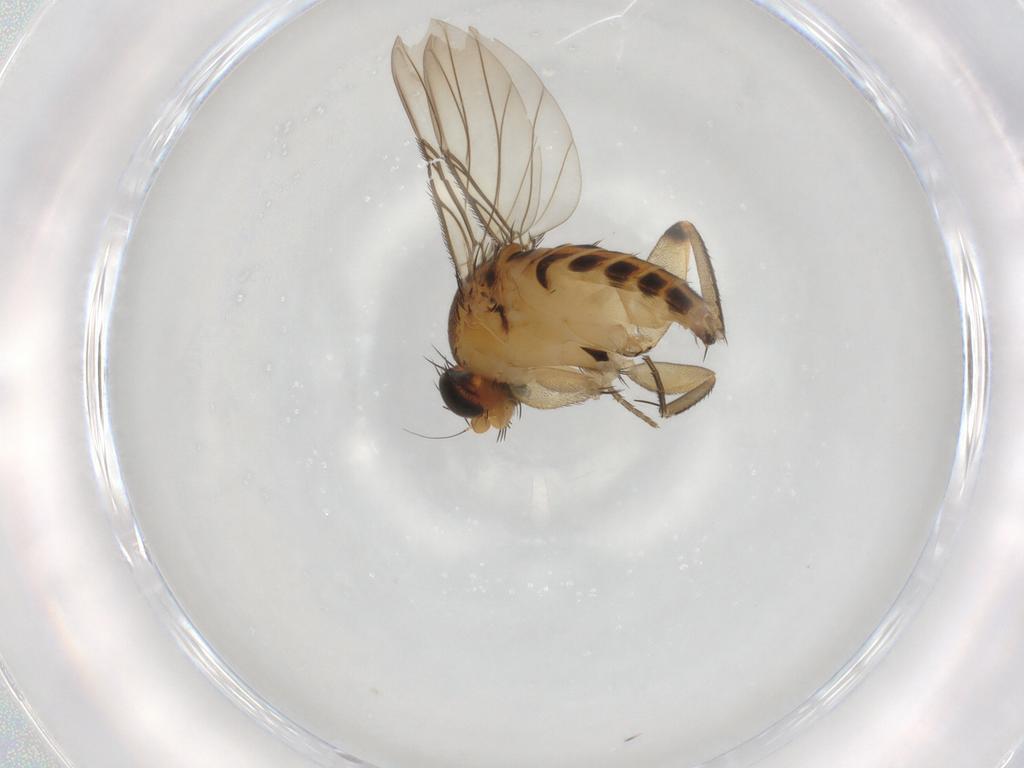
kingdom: Animalia
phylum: Arthropoda
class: Insecta
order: Diptera
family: Phoridae
